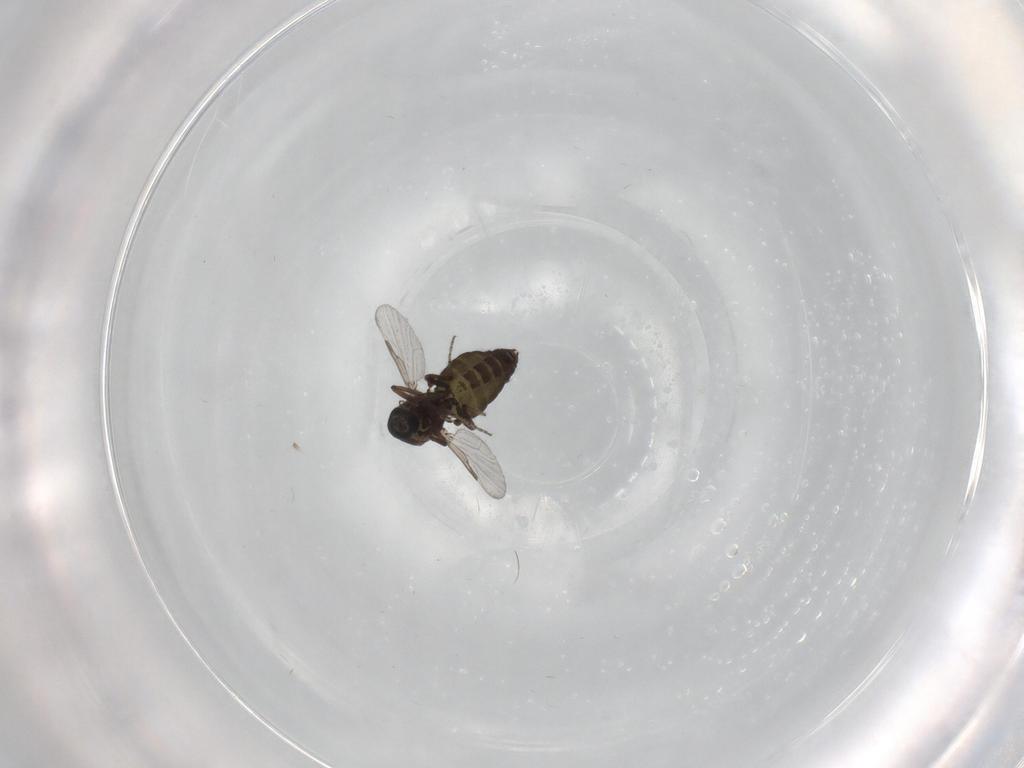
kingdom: Animalia
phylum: Arthropoda
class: Insecta
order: Diptera
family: Ceratopogonidae
